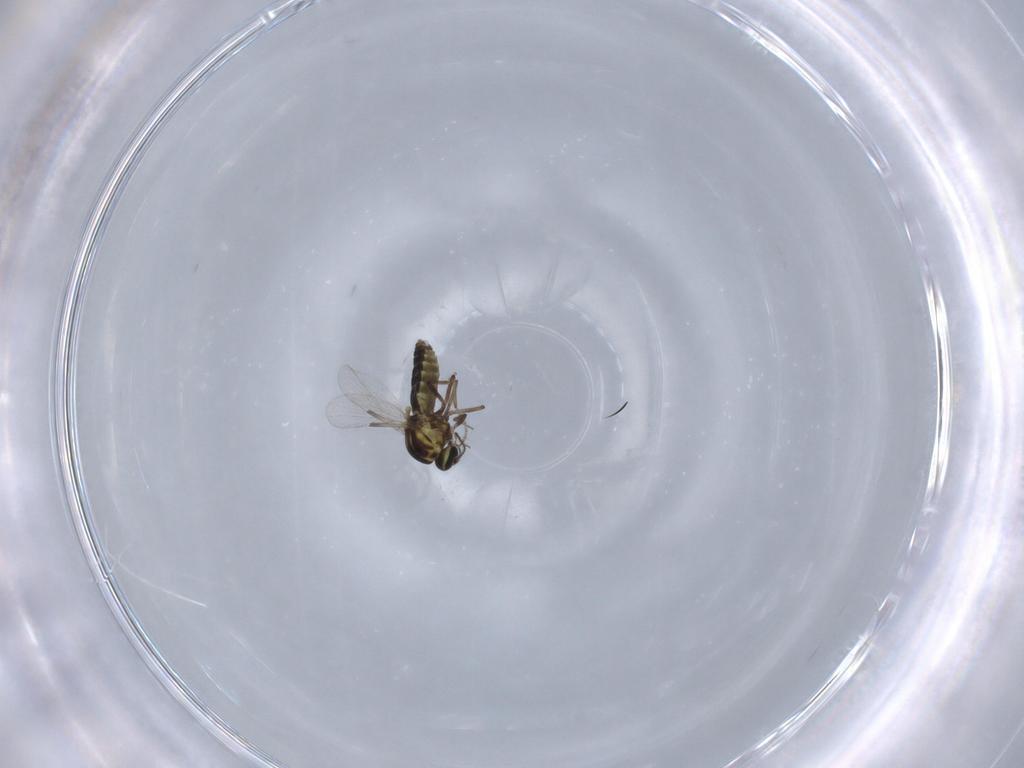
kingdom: Animalia
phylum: Arthropoda
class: Insecta
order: Diptera
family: Ceratopogonidae
